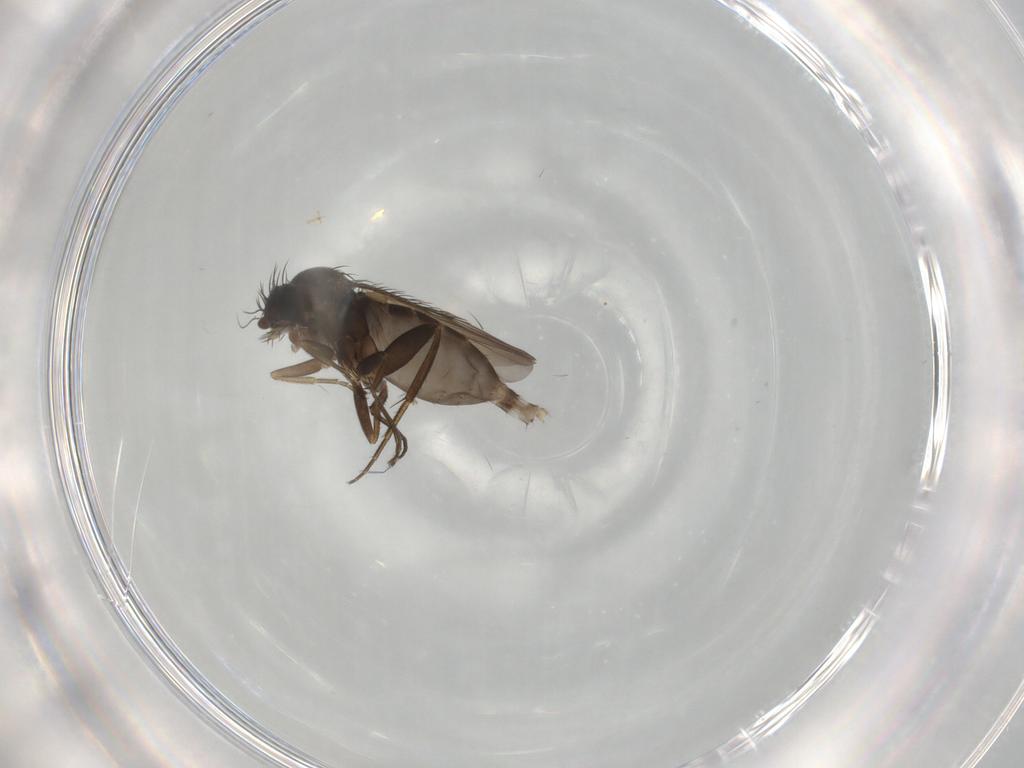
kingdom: Animalia
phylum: Arthropoda
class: Insecta
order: Diptera
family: Phoridae
